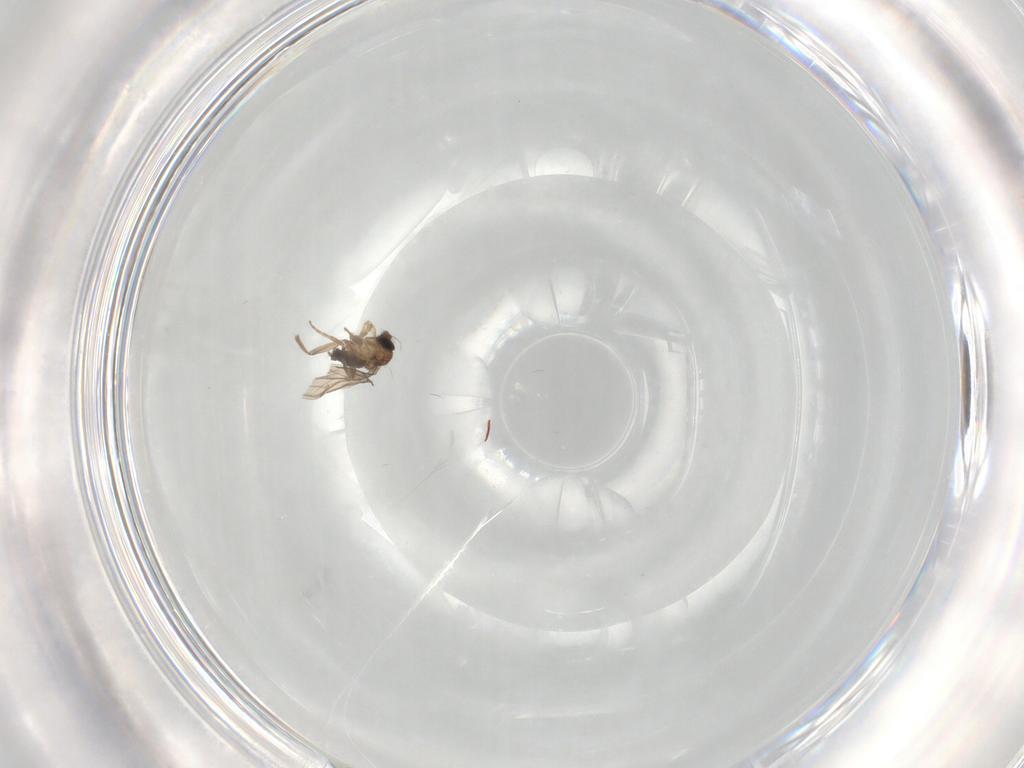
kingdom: Animalia
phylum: Arthropoda
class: Insecta
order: Diptera
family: Phoridae
